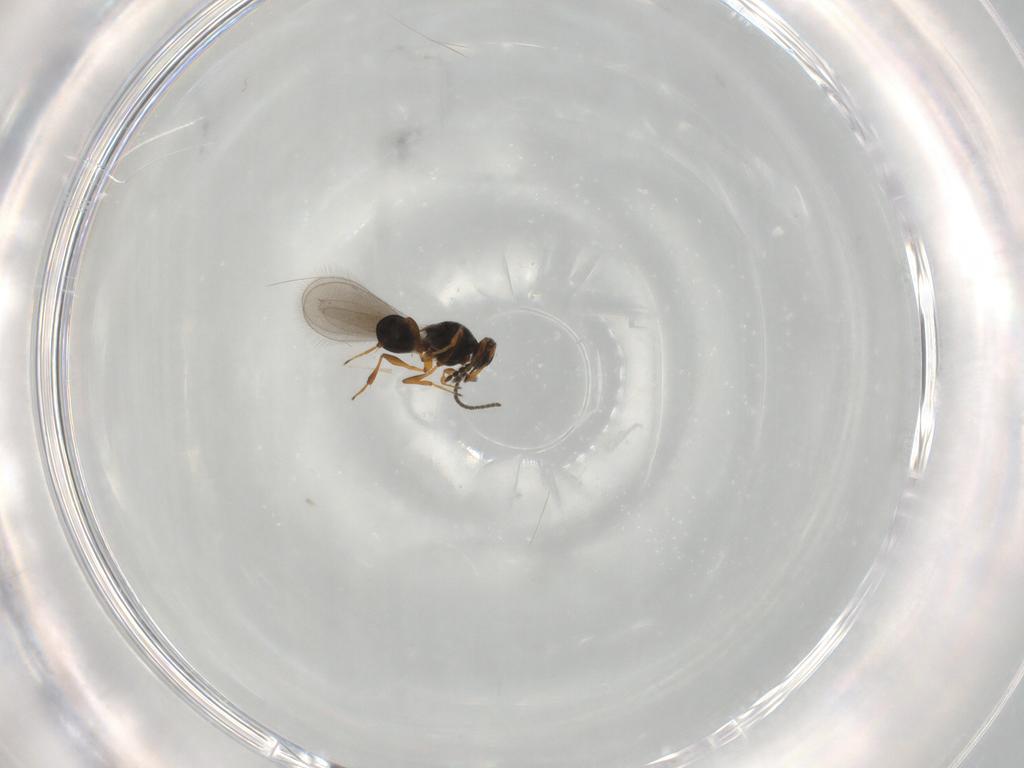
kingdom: Animalia
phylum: Arthropoda
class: Insecta
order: Hymenoptera
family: Platygastridae
